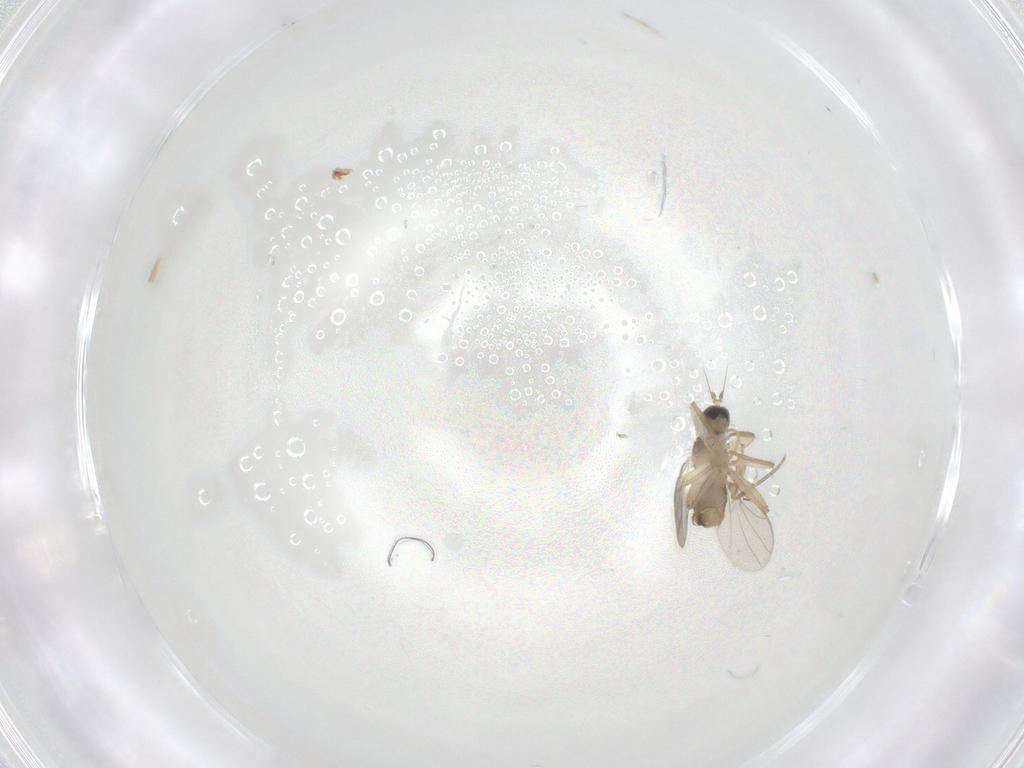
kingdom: Animalia
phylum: Arthropoda
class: Insecta
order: Diptera
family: Hybotidae
